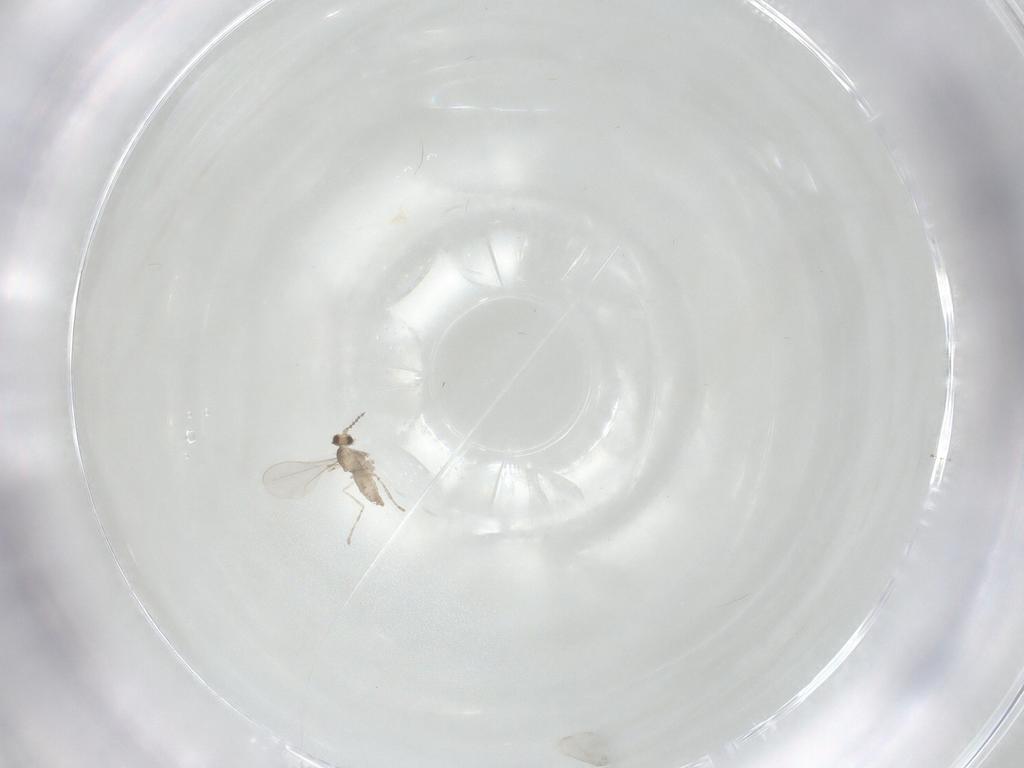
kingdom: Animalia
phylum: Arthropoda
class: Insecta
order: Diptera
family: Cecidomyiidae
